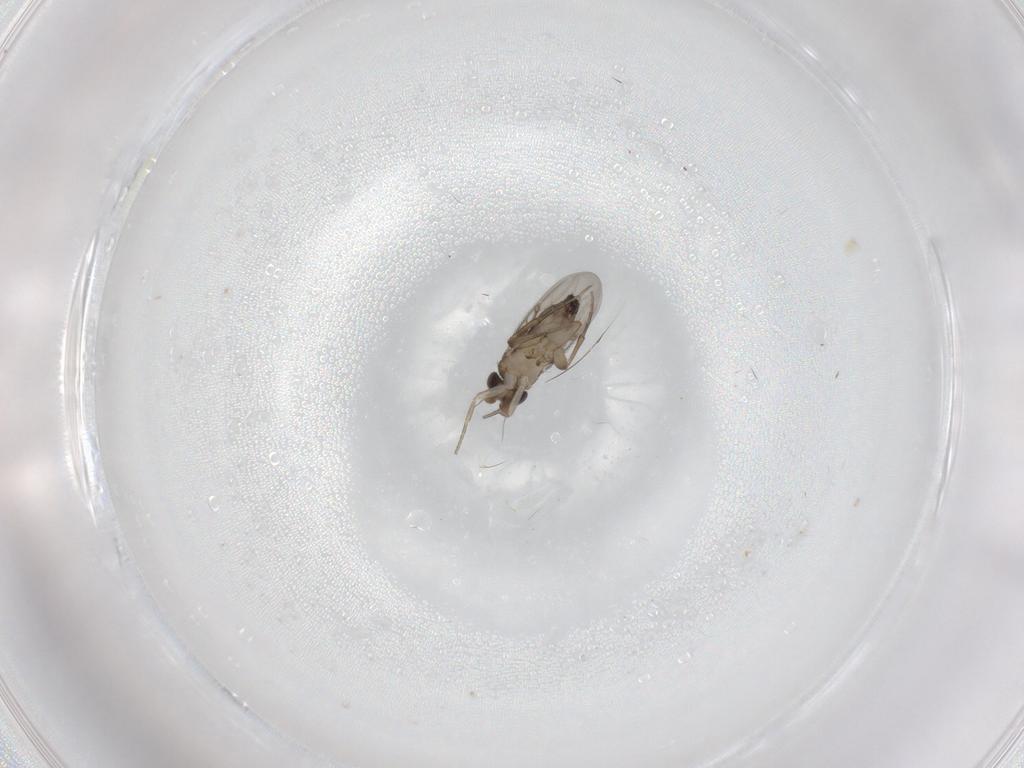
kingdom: Animalia
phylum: Arthropoda
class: Insecta
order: Diptera
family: Phoridae
